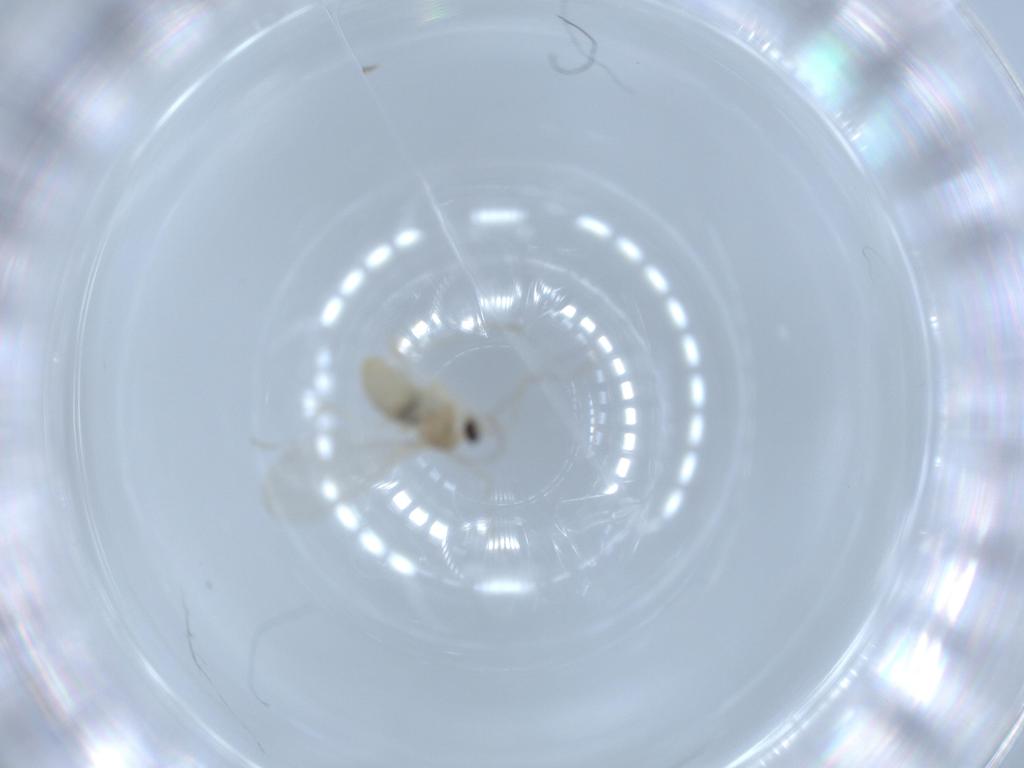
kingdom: Animalia
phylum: Arthropoda
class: Insecta
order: Diptera
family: Cecidomyiidae
